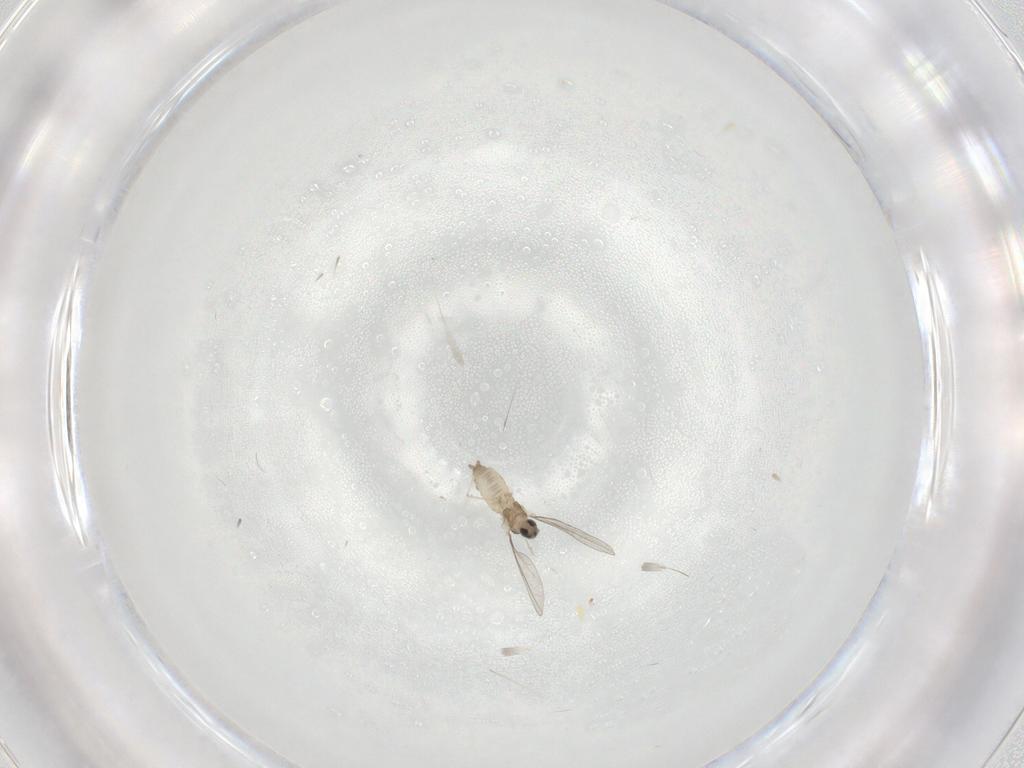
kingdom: Animalia
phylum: Arthropoda
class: Insecta
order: Diptera
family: Cecidomyiidae
